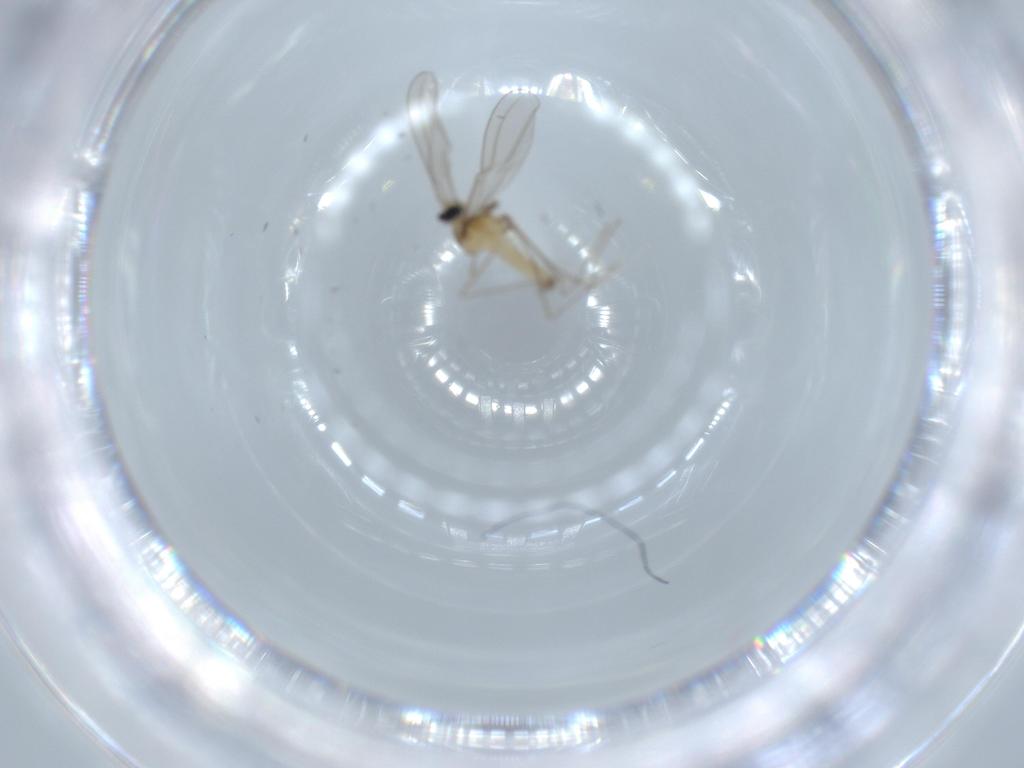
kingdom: Animalia
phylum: Arthropoda
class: Insecta
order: Diptera
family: Cecidomyiidae
